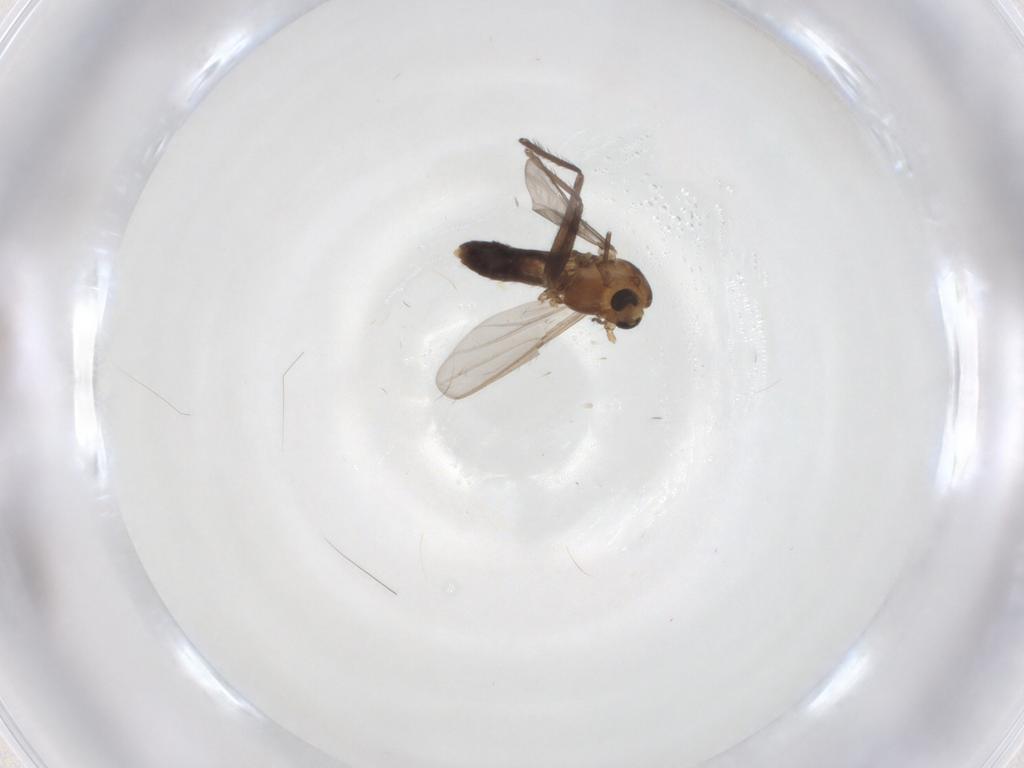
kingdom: Animalia
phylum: Arthropoda
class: Insecta
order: Diptera
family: Chironomidae
